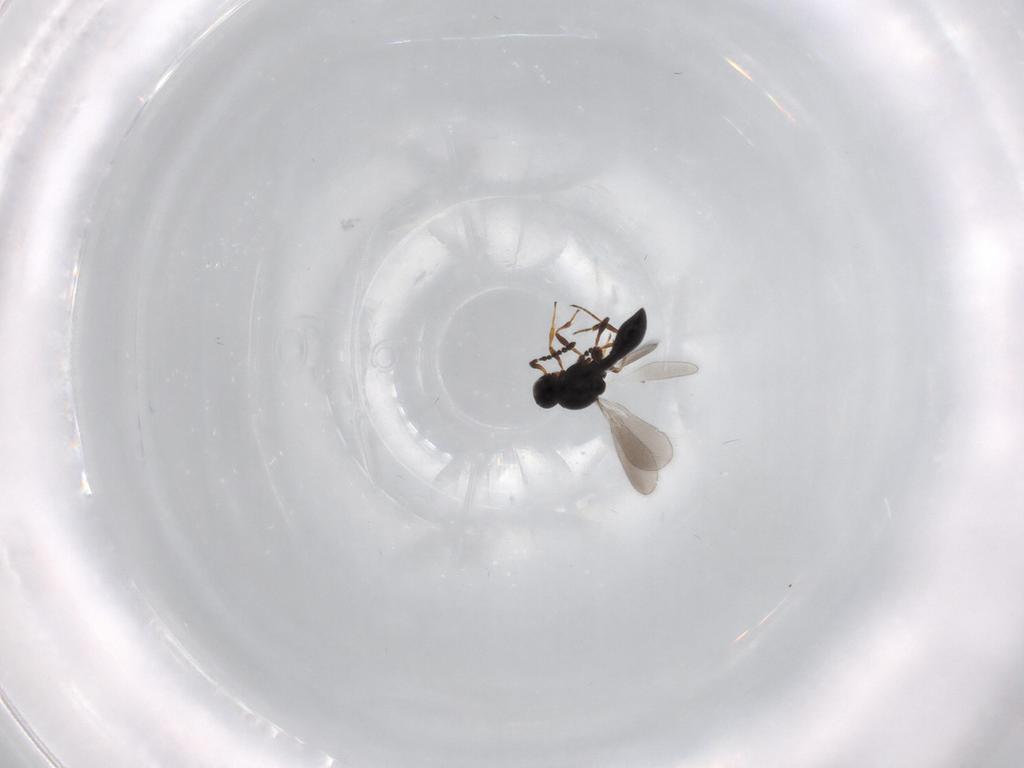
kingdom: Animalia
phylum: Arthropoda
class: Insecta
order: Hymenoptera
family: Platygastridae
